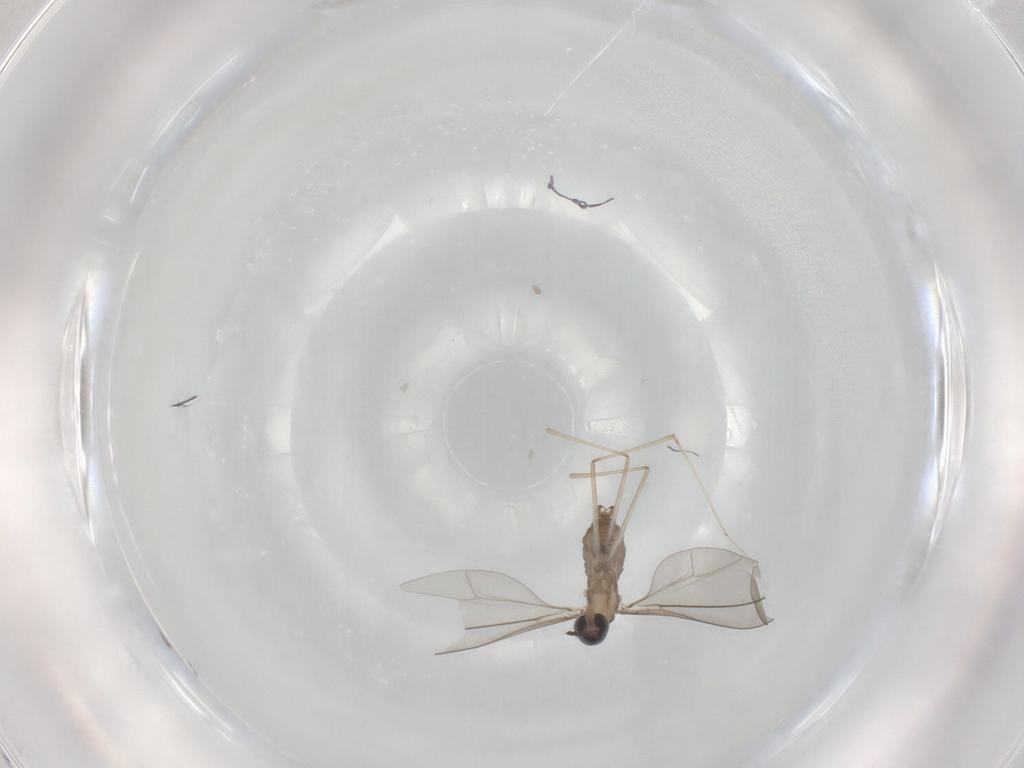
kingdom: Animalia
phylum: Arthropoda
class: Insecta
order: Diptera
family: Cecidomyiidae
